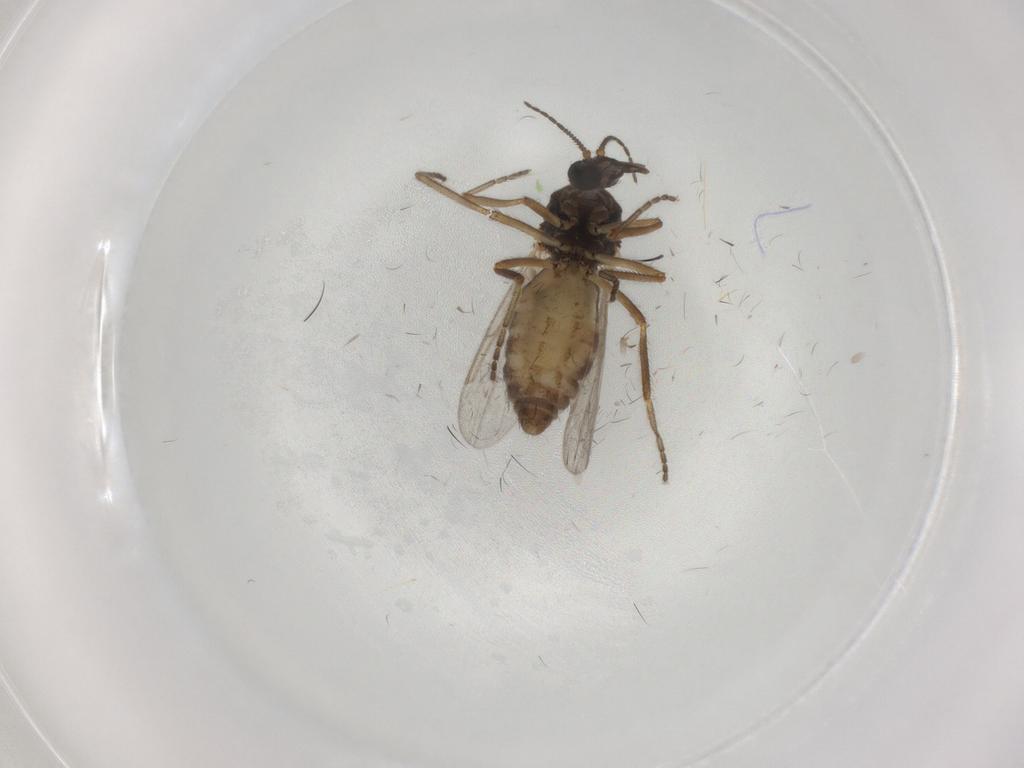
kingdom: Animalia
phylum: Arthropoda
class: Insecta
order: Diptera
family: Ceratopogonidae
